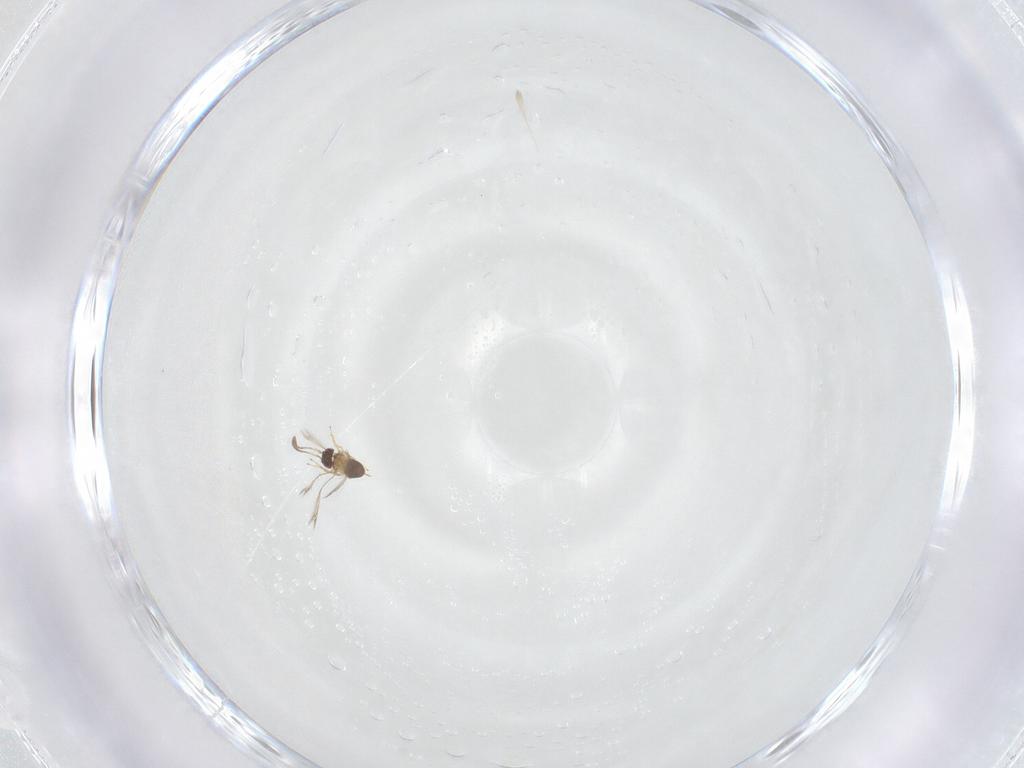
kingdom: Animalia
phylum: Arthropoda
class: Insecta
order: Hymenoptera
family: Mymaridae
